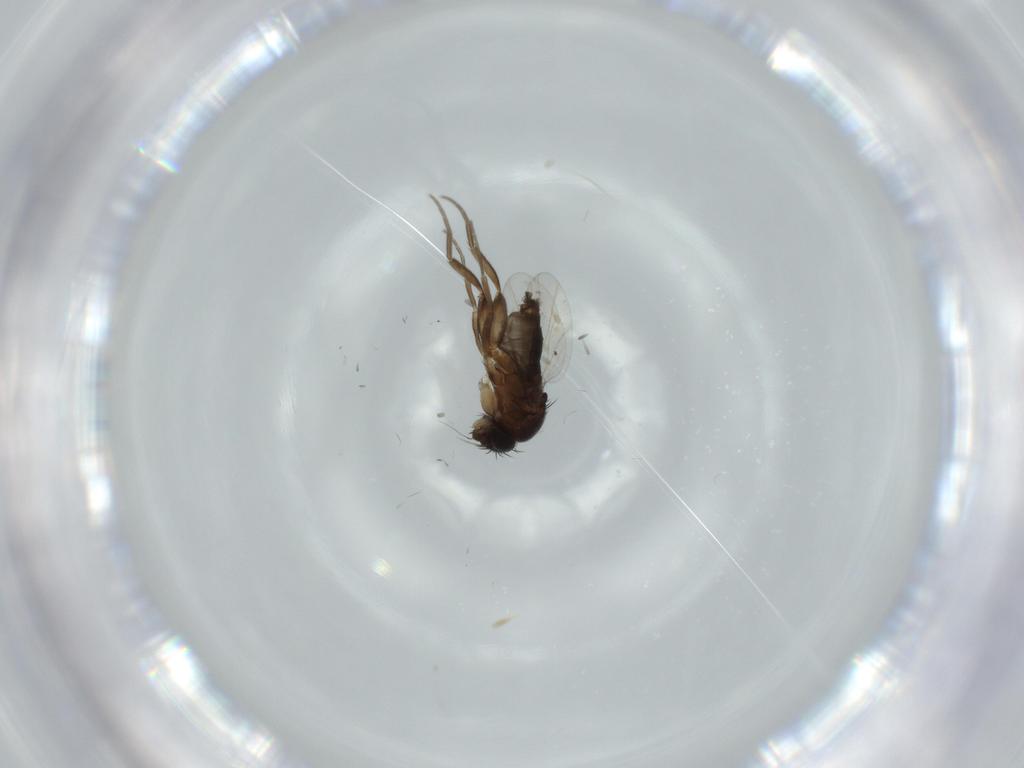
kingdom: Animalia
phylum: Arthropoda
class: Insecta
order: Diptera
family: Phoridae
